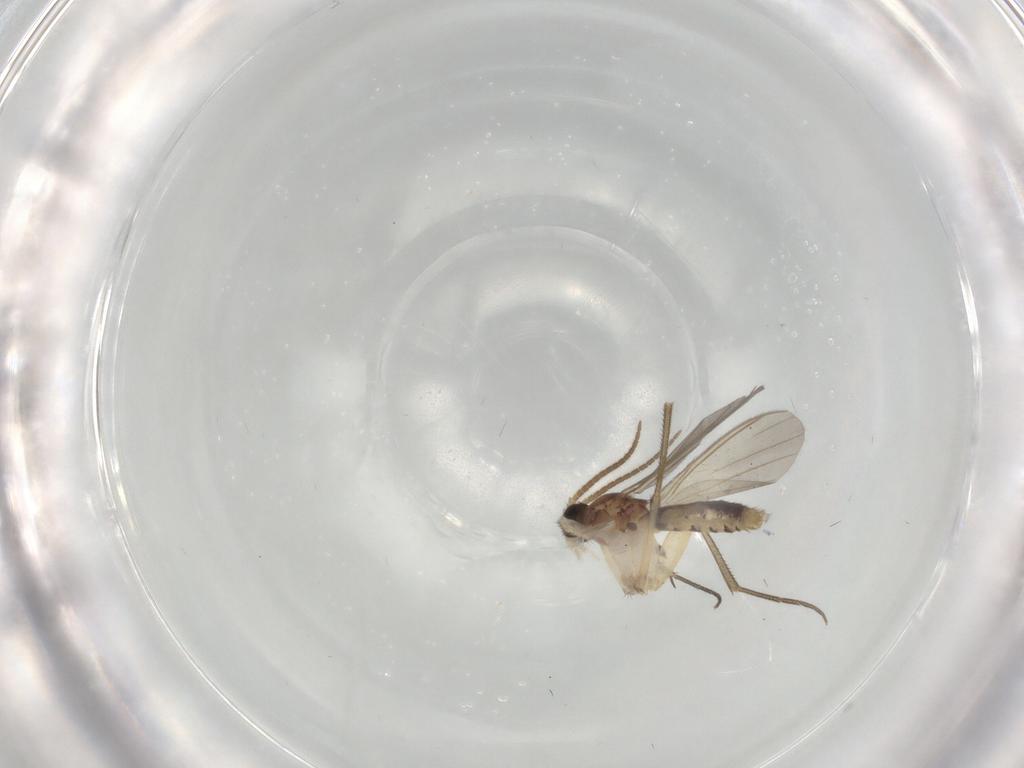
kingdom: Animalia
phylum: Arthropoda
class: Insecta
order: Diptera
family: Mycetophilidae
